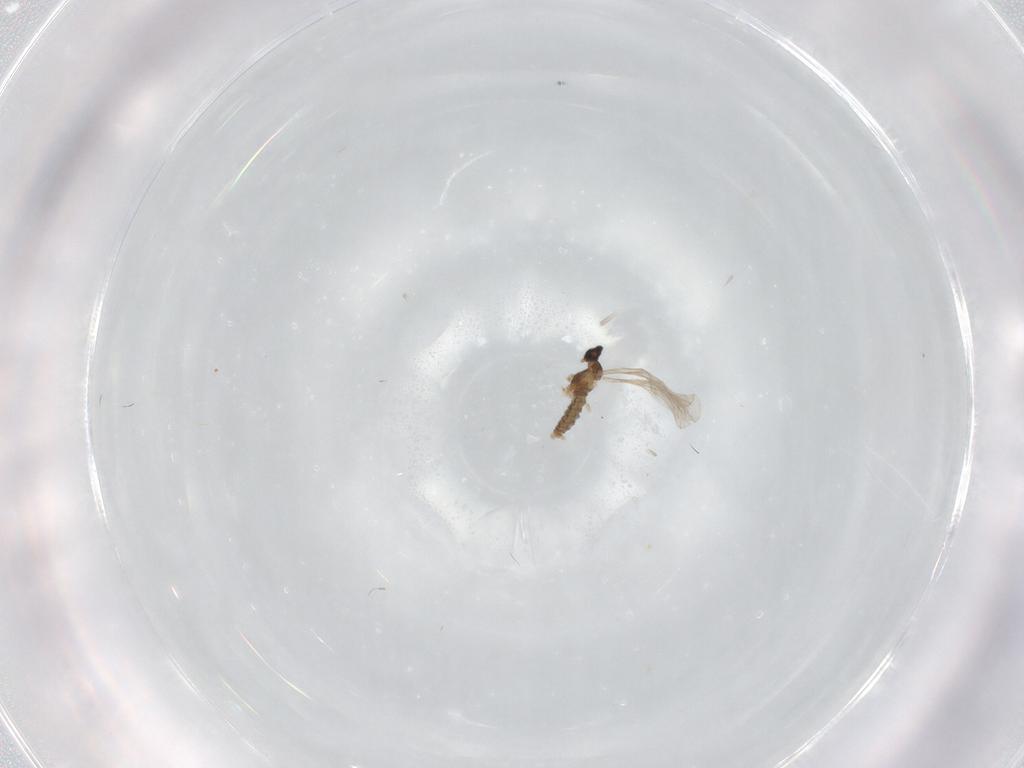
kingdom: Animalia
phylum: Arthropoda
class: Insecta
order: Diptera
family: Cecidomyiidae
